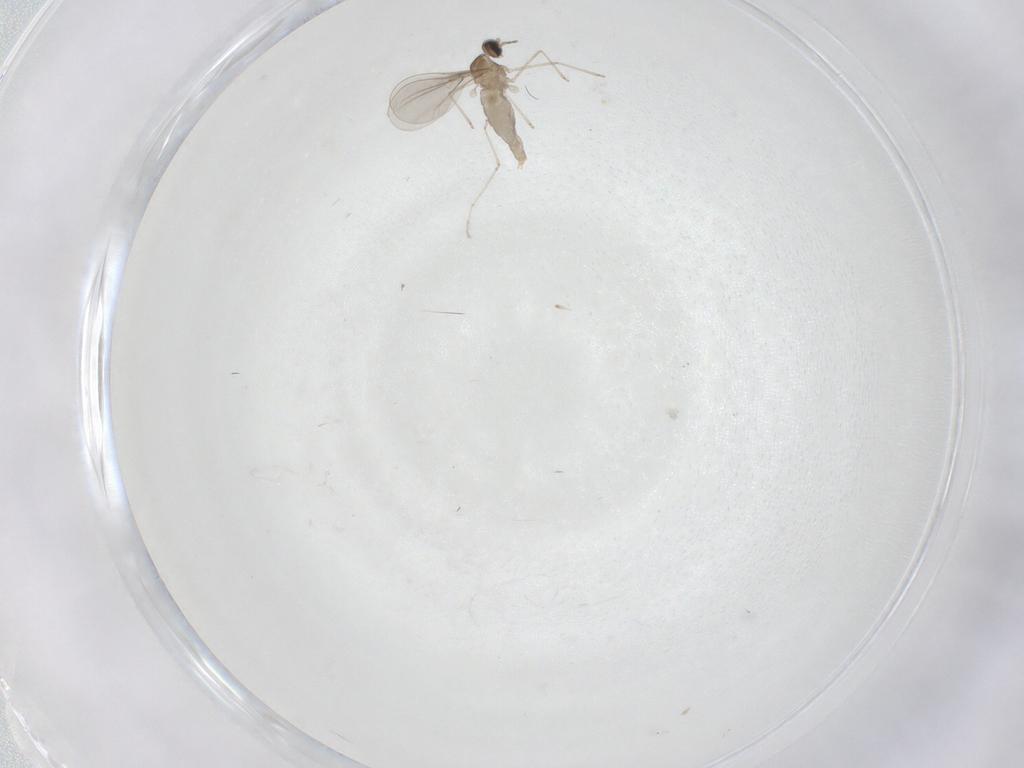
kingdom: Animalia
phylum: Arthropoda
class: Insecta
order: Diptera
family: Cecidomyiidae
